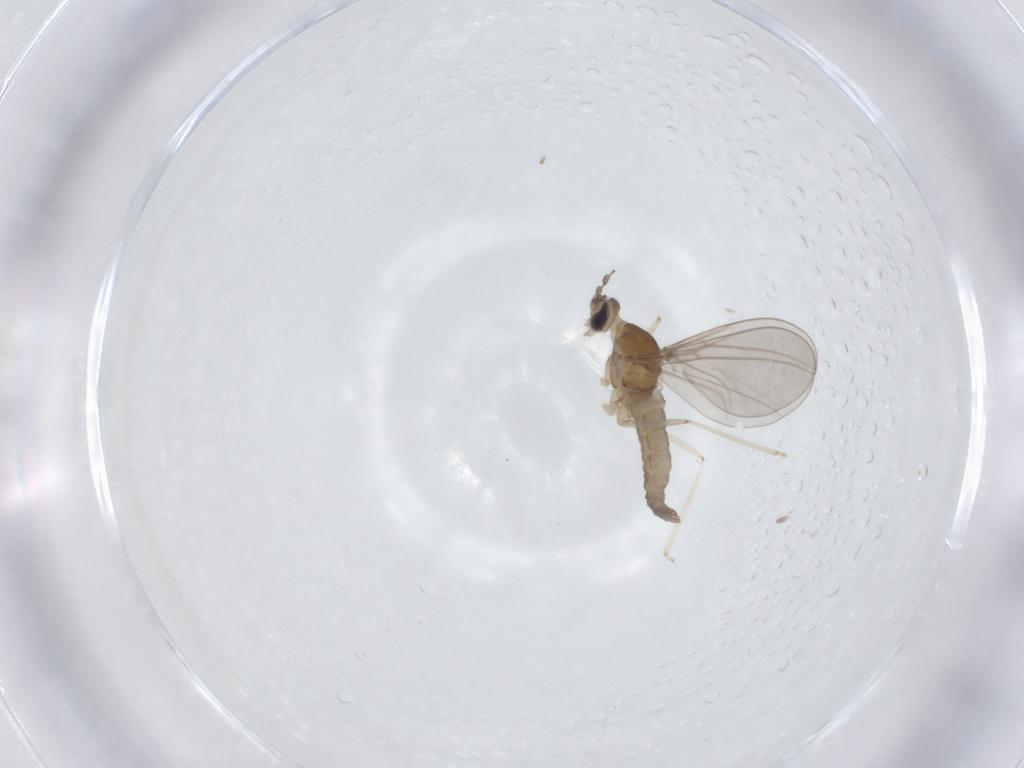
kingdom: Animalia
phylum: Arthropoda
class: Insecta
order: Diptera
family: Cecidomyiidae
